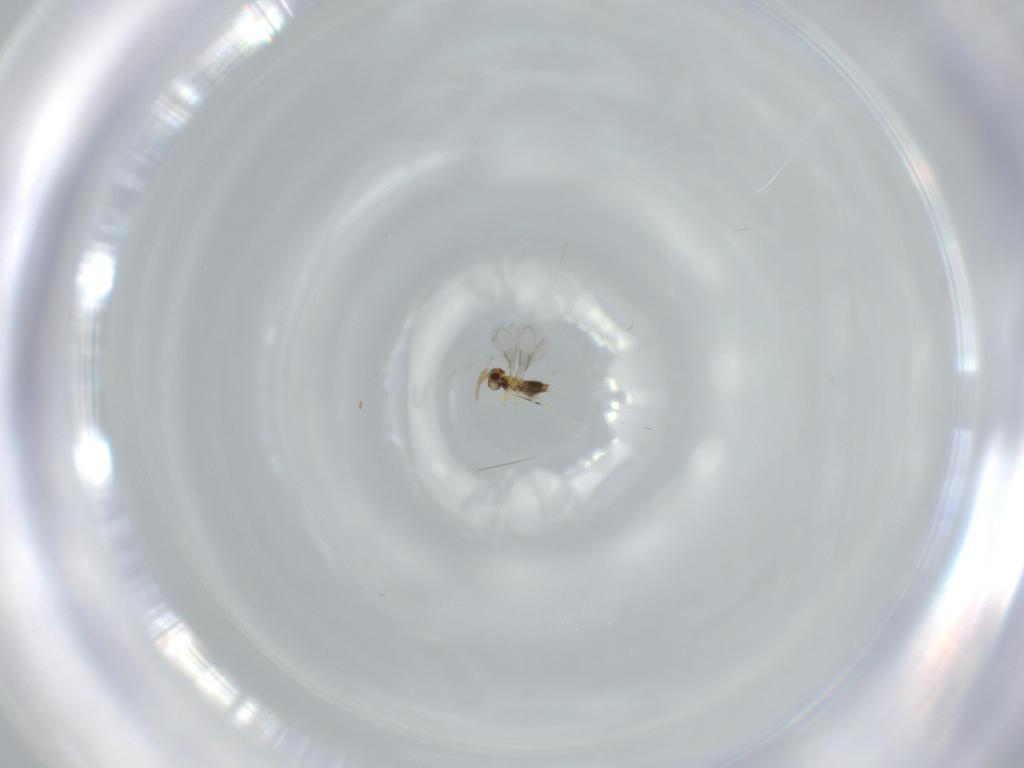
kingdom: Animalia
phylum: Arthropoda
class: Insecta
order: Hymenoptera
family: Aphelinidae
